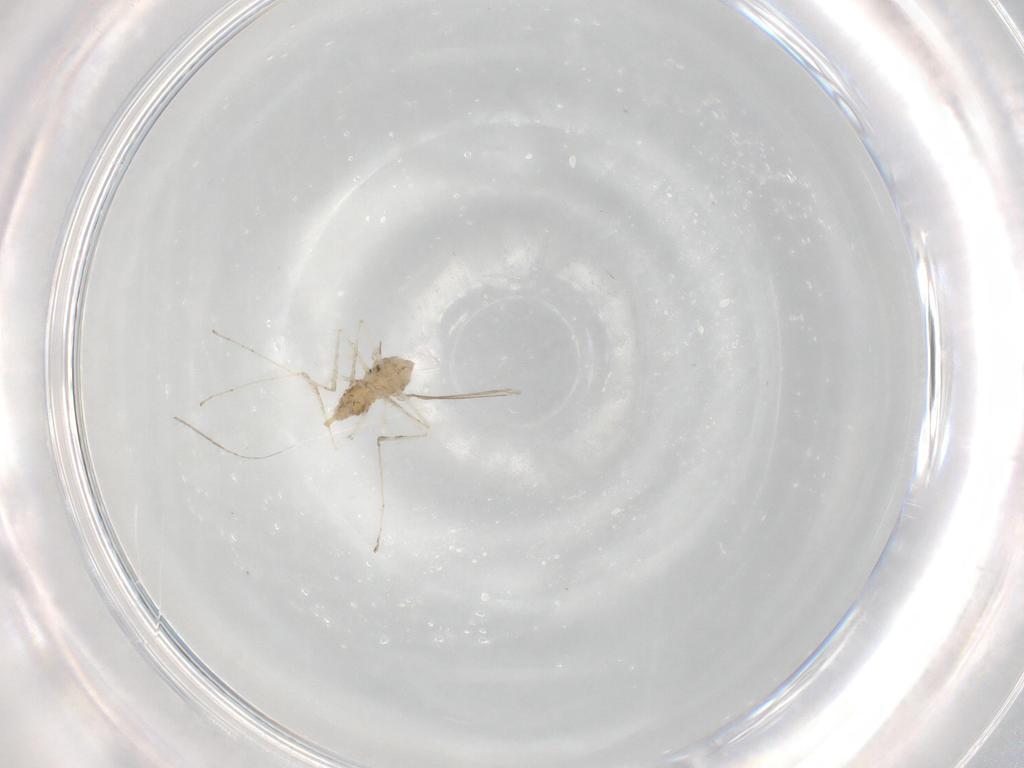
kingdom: Animalia
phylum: Arthropoda
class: Insecta
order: Diptera
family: Cecidomyiidae
